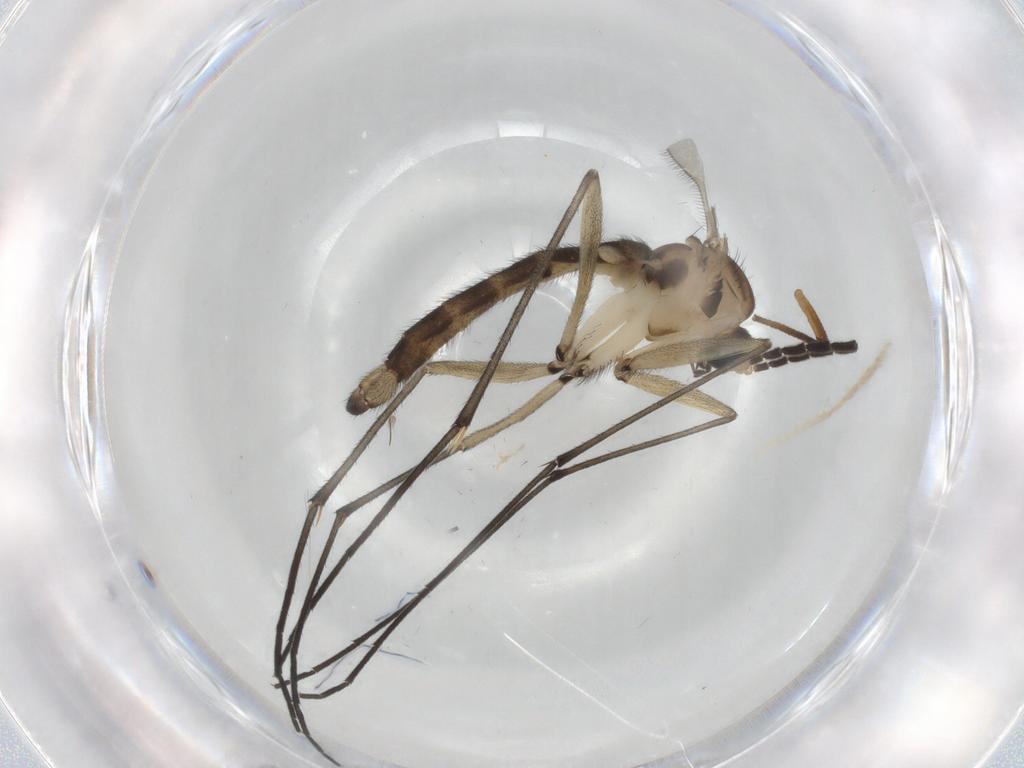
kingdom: Animalia
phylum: Arthropoda
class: Insecta
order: Diptera
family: Sciaridae
